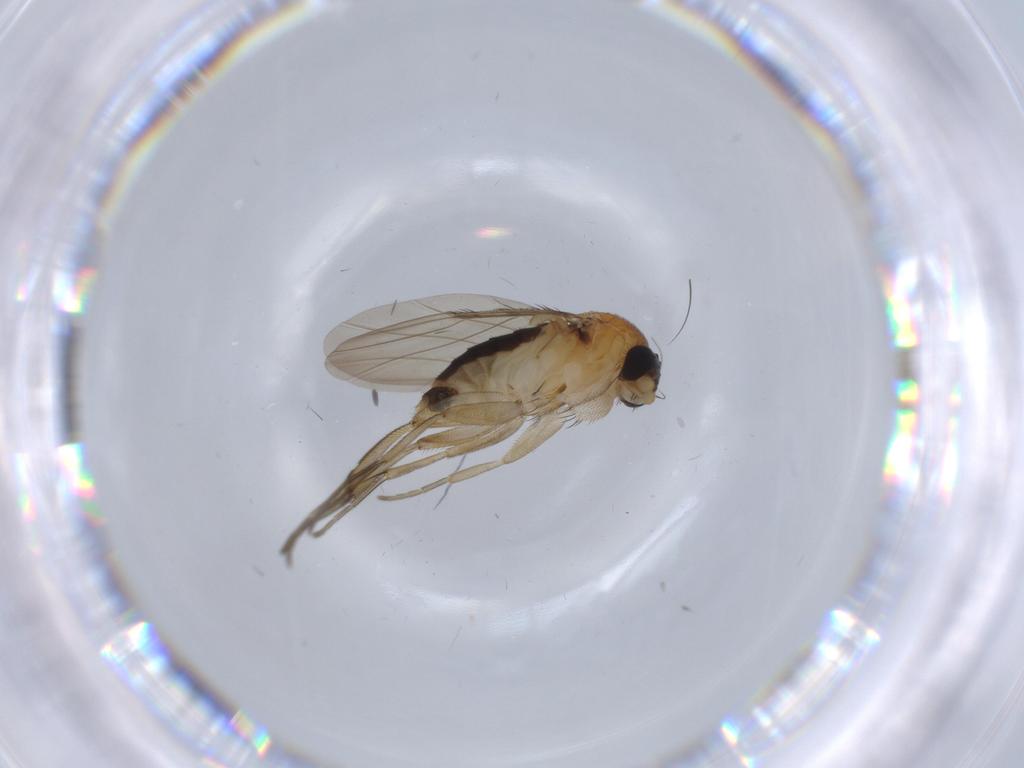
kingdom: Animalia
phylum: Arthropoda
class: Insecta
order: Diptera
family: Phoridae
